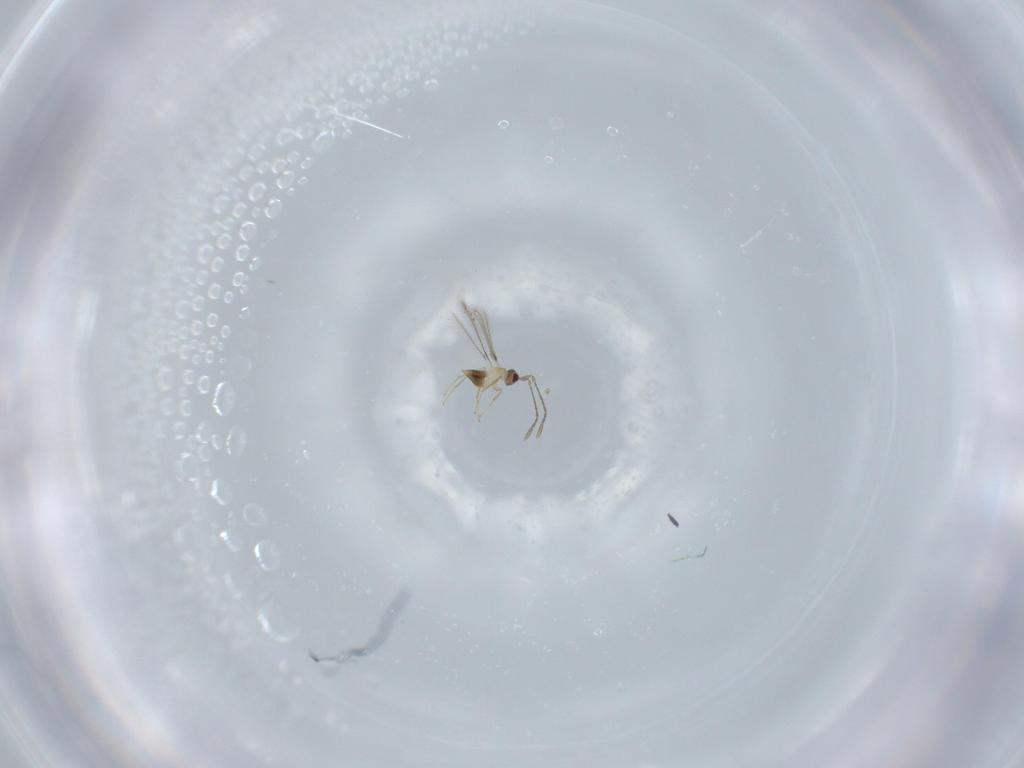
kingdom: Animalia
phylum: Arthropoda
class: Insecta
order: Hymenoptera
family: Mymaridae
